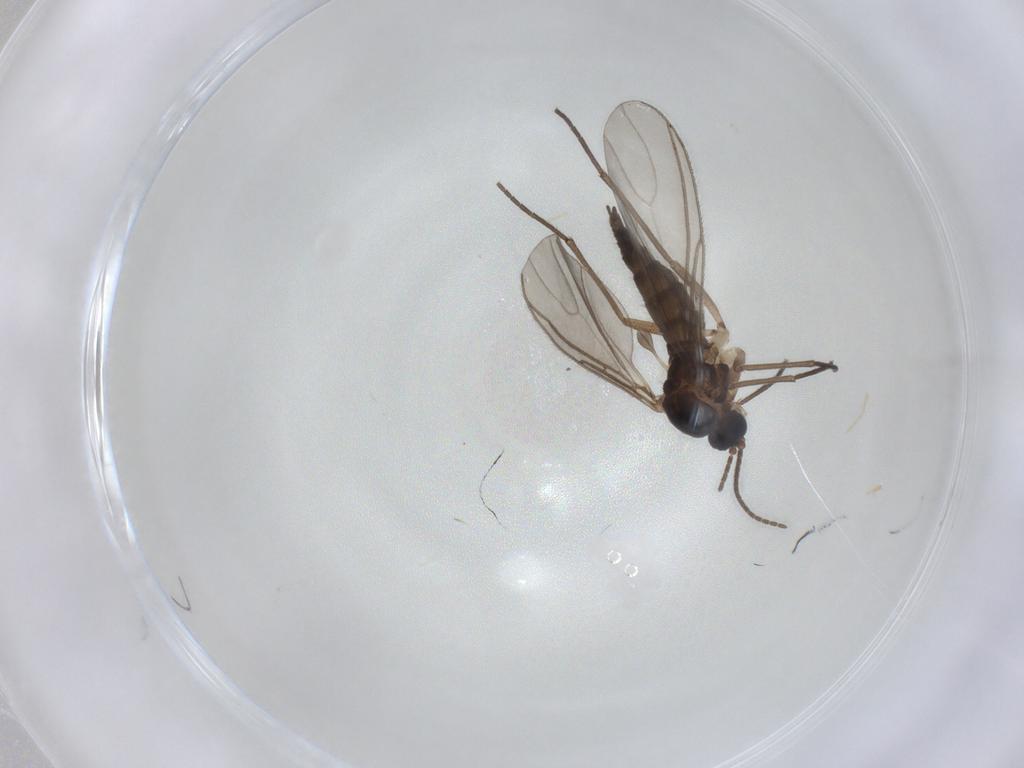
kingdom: Animalia
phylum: Arthropoda
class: Insecta
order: Diptera
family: Sciaridae
